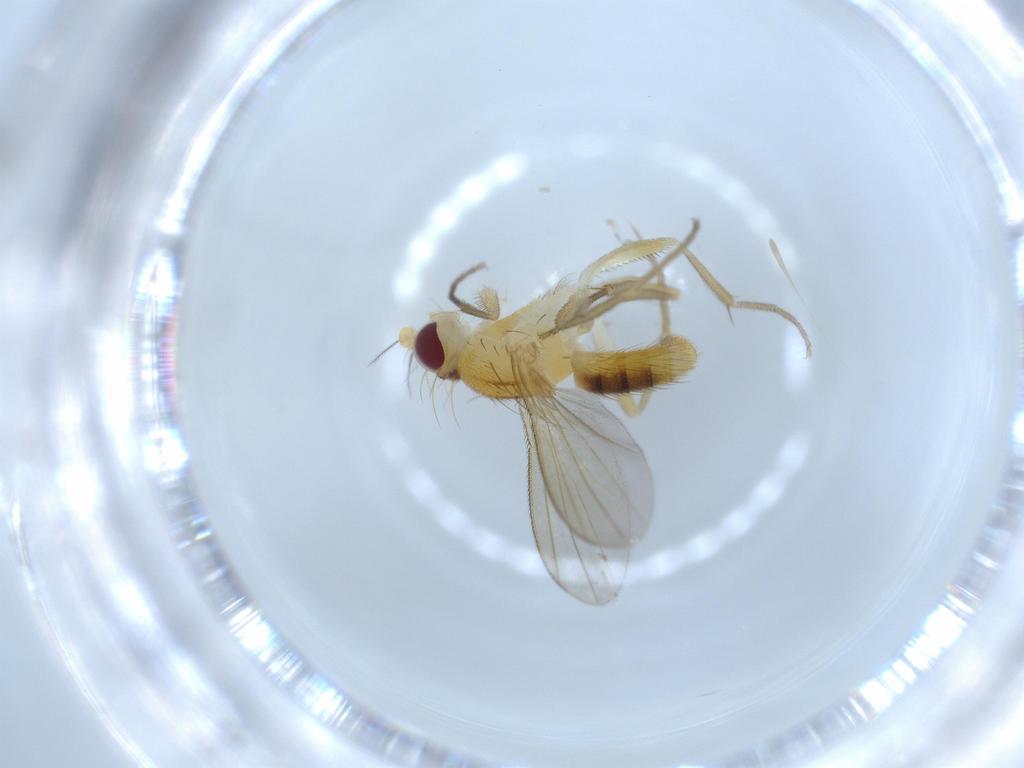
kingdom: Animalia
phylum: Arthropoda
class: Insecta
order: Diptera
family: Clusiidae
